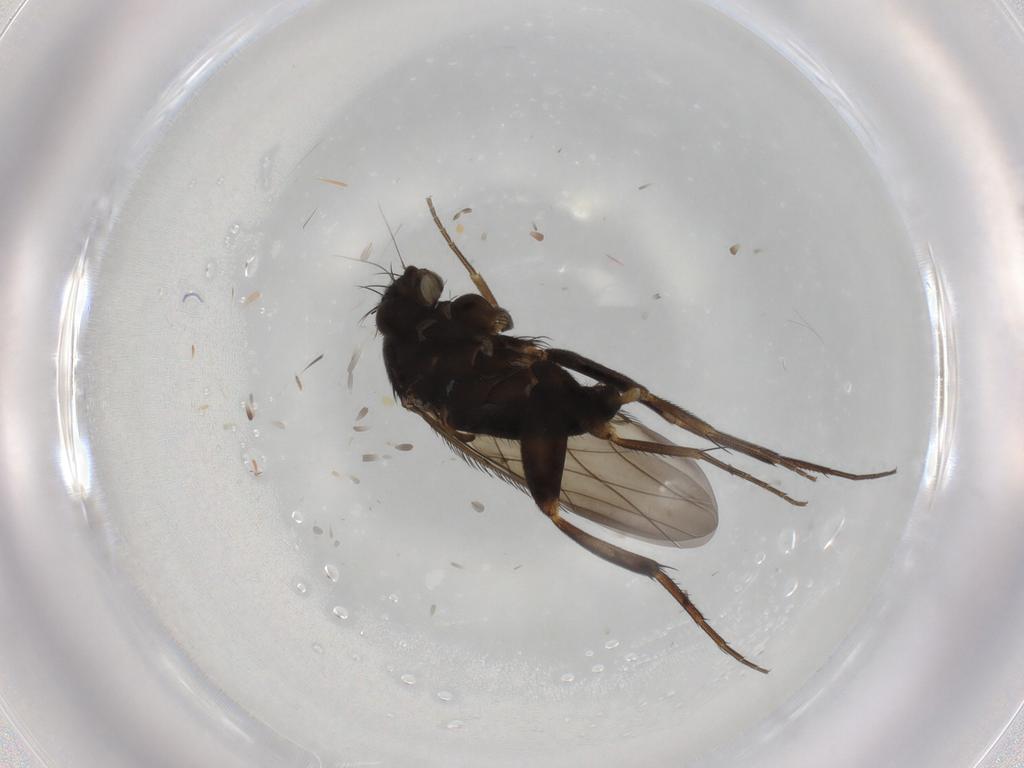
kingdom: Animalia
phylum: Arthropoda
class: Insecta
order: Diptera
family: Phoridae
